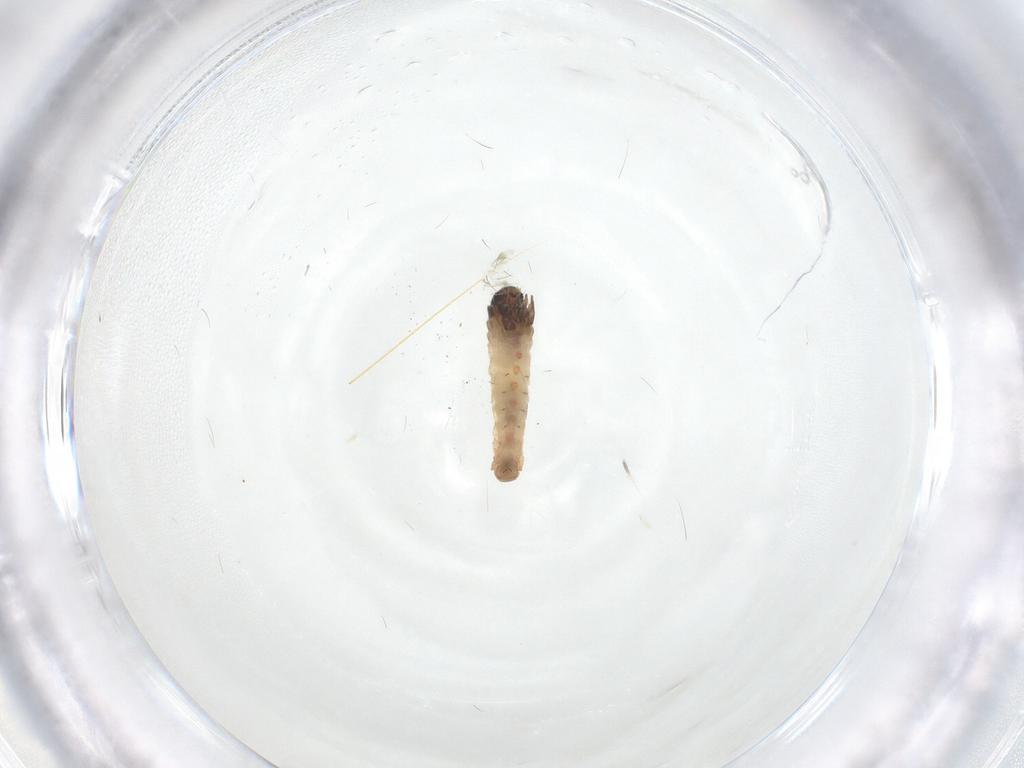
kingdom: Animalia
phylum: Arthropoda
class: Insecta
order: Lepidoptera
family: Psychidae
